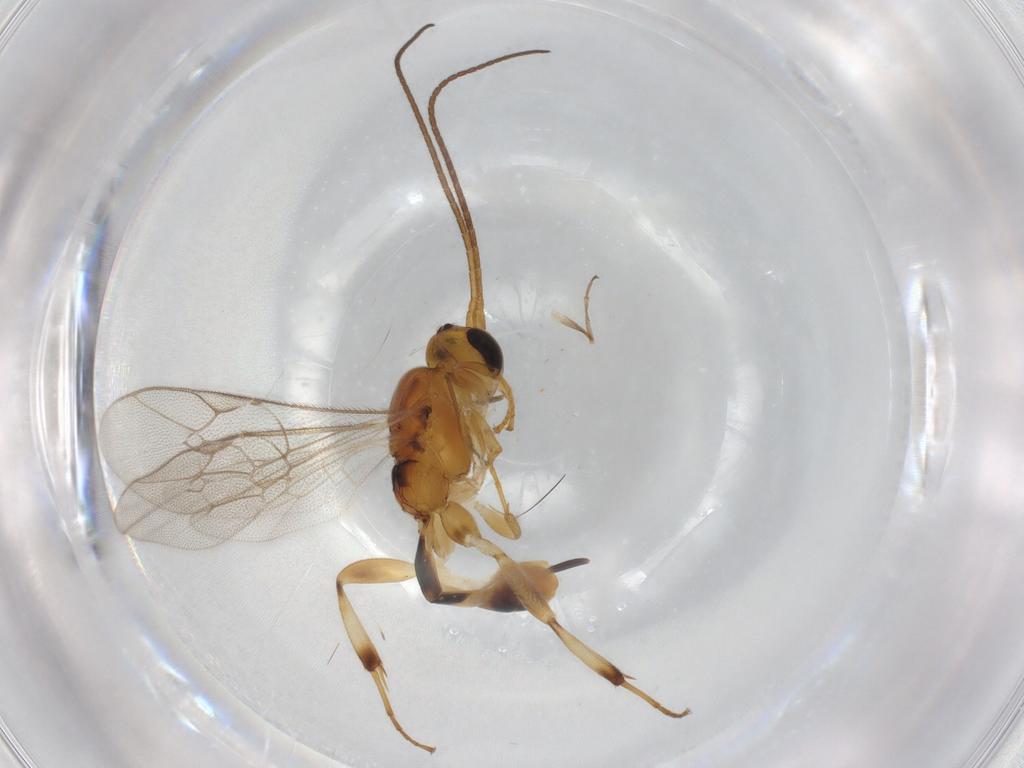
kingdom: Animalia
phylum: Arthropoda
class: Insecta
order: Hymenoptera
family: Ichneumonidae
